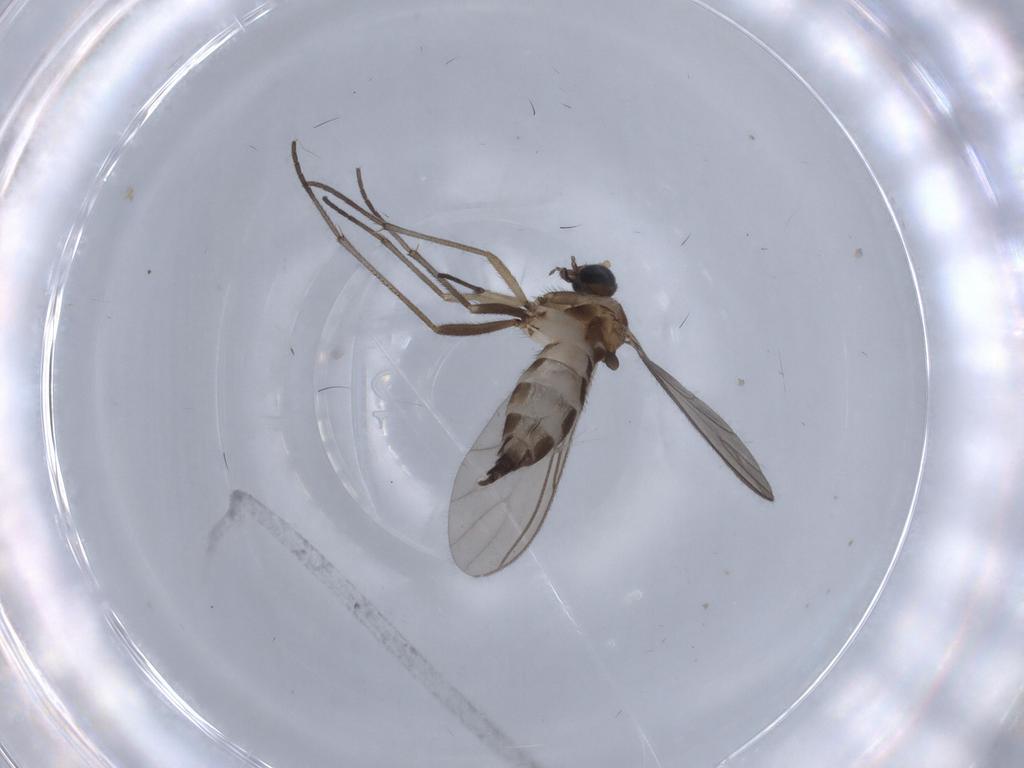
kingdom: Animalia
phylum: Arthropoda
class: Insecta
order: Diptera
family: Sciaridae
